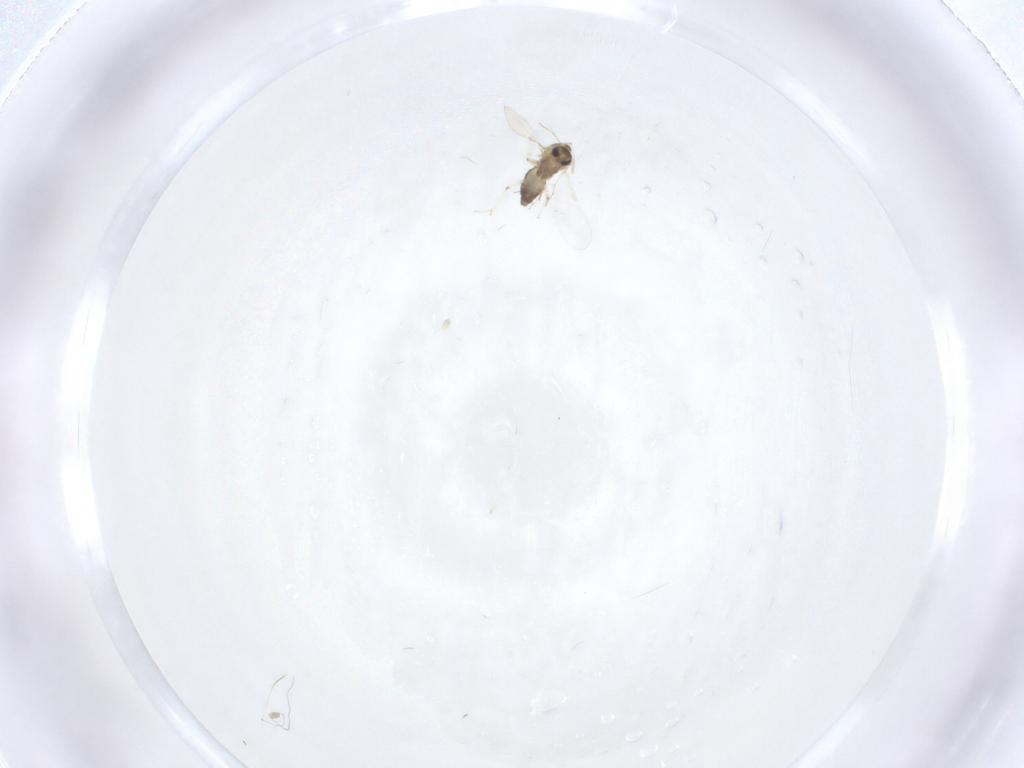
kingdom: Animalia
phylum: Arthropoda
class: Insecta
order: Diptera
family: Chironomidae
